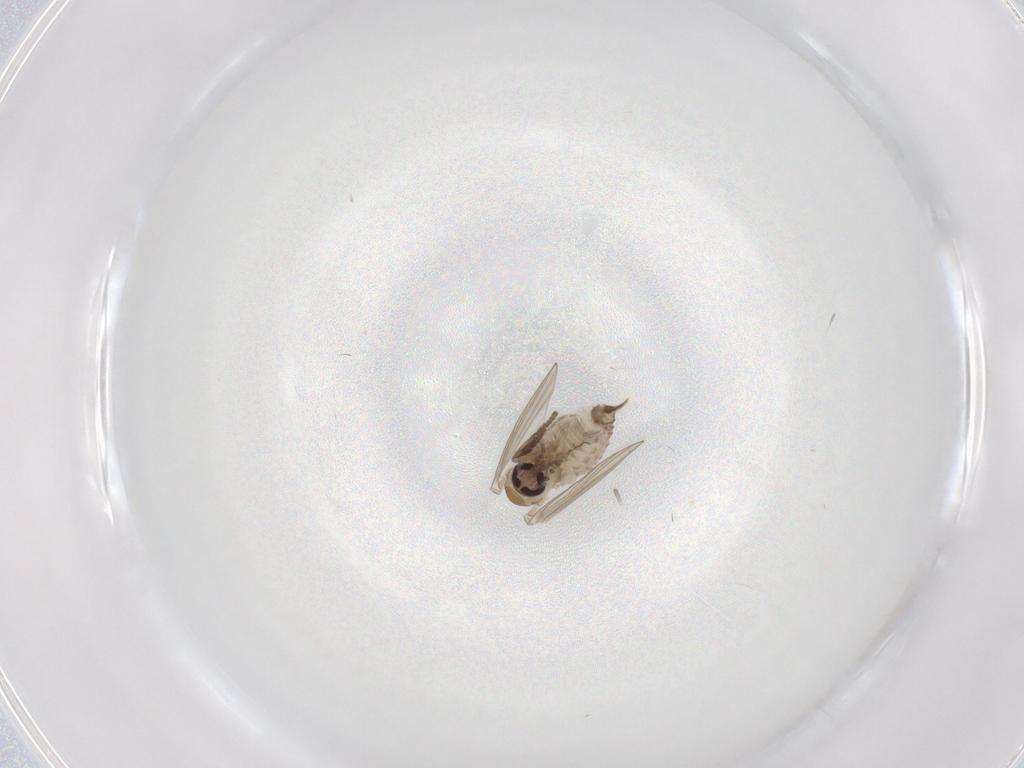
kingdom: Animalia
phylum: Arthropoda
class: Insecta
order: Diptera
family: Psychodidae
